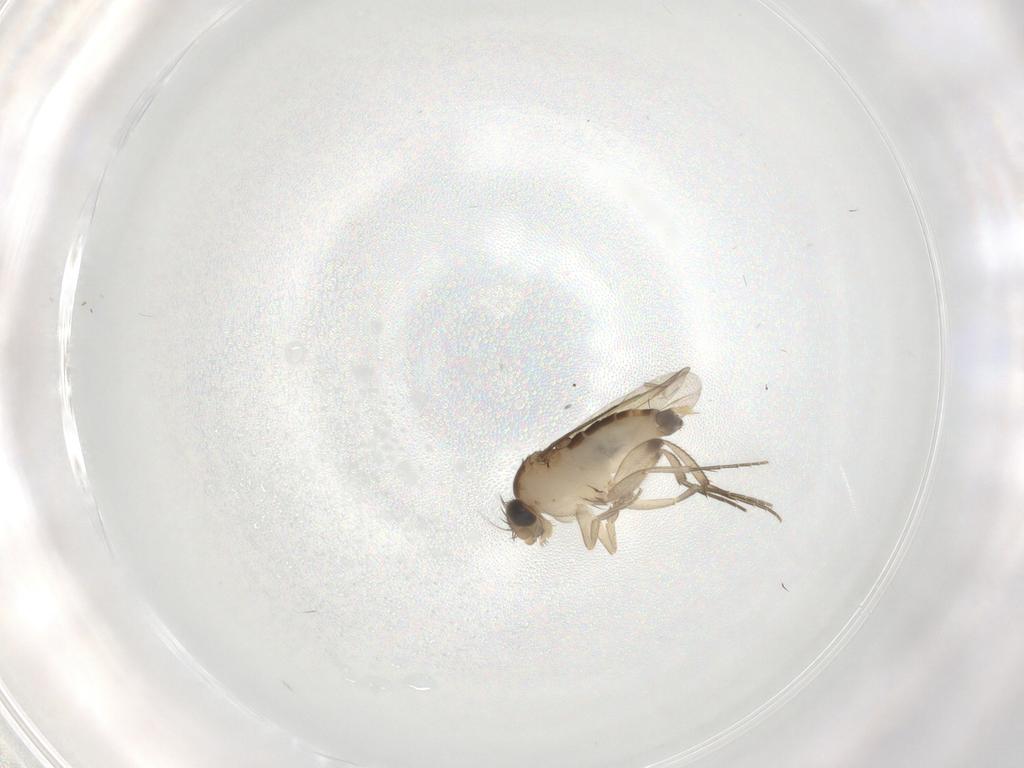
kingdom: Animalia
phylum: Arthropoda
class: Insecta
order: Diptera
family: Phoridae
